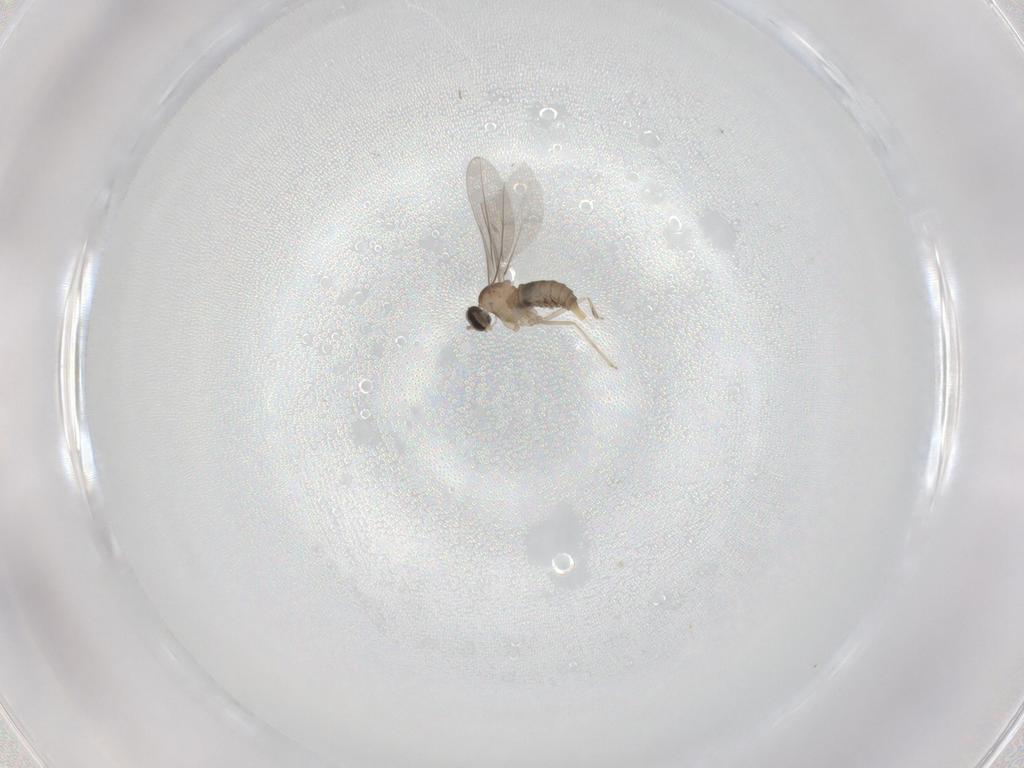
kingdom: Animalia
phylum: Arthropoda
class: Insecta
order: Diptera
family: Cecidomyiidae
